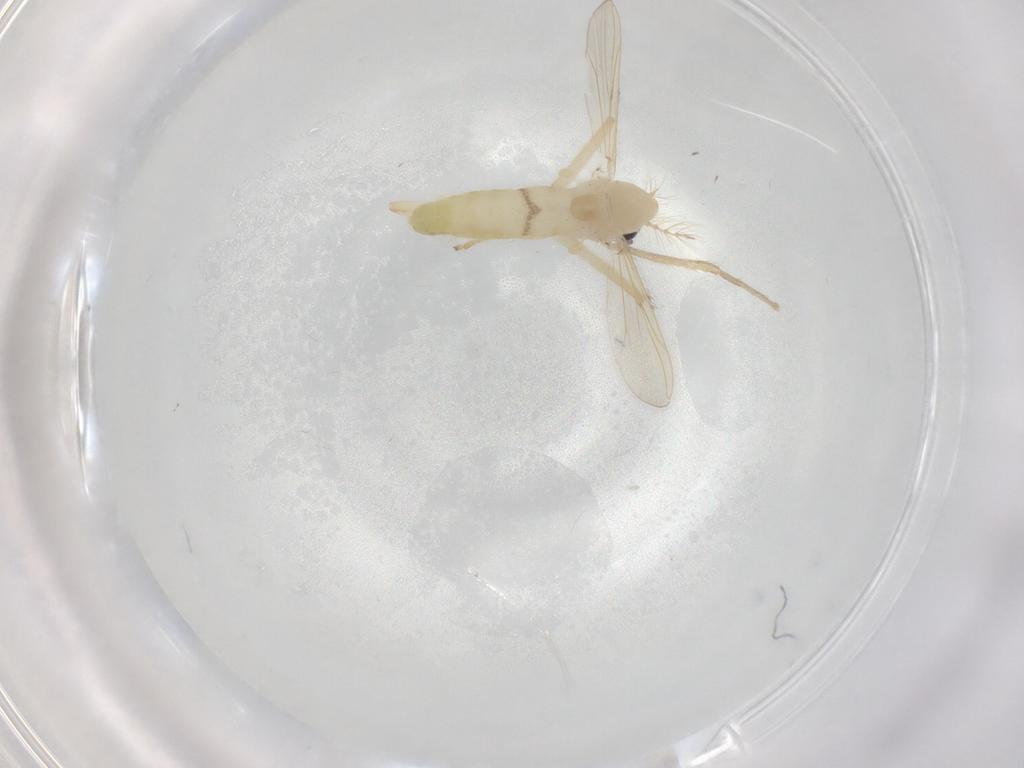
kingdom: Animalia
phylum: Arthropoda
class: Insecta
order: Diptera
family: Chironomidae
